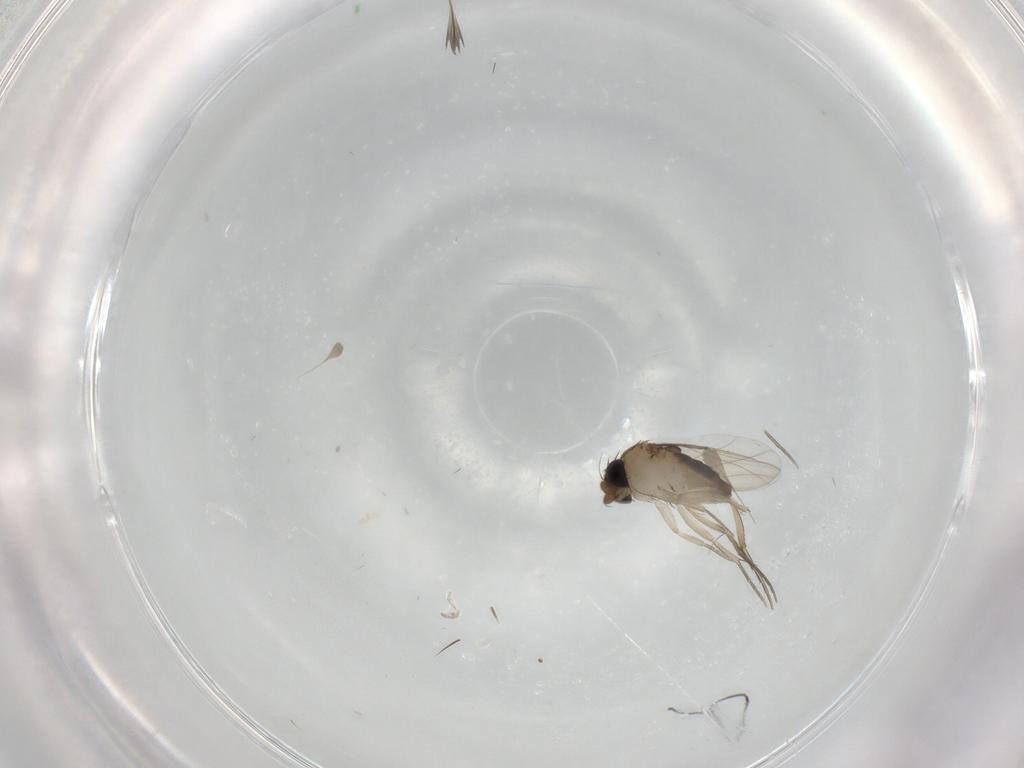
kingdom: Animalia
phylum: Arthropoda
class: Insecta
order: Diptera
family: Phoridae
